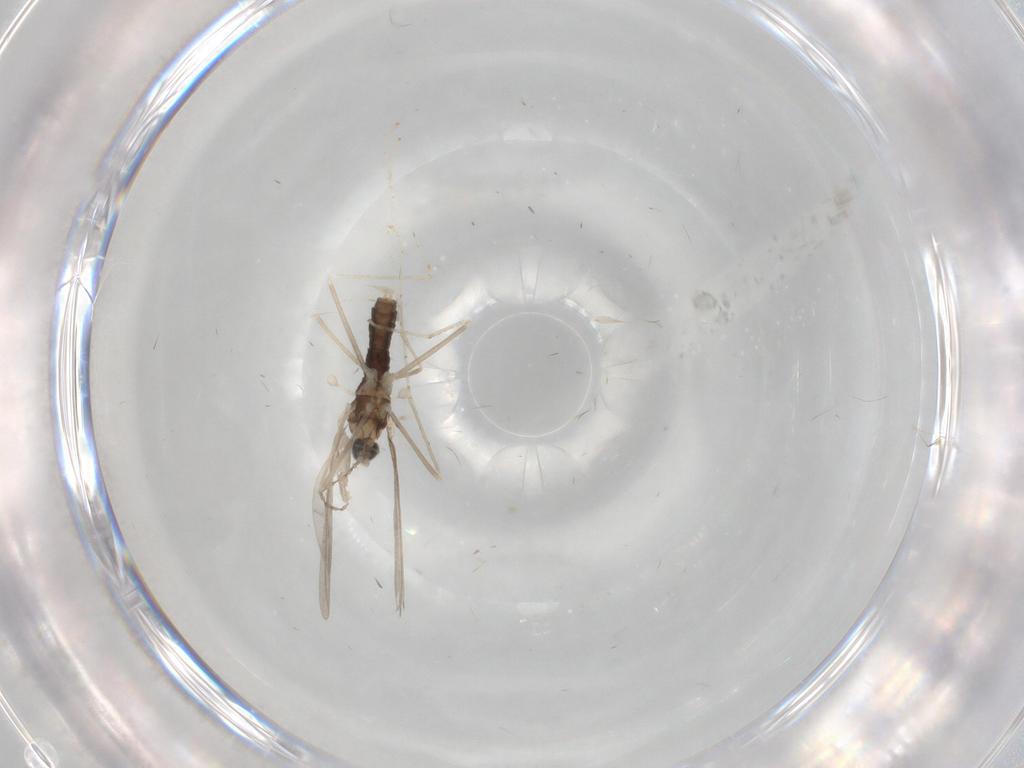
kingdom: Animalia
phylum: Arthropoda
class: Insecta
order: Diptera
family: Cecidomyiidae
